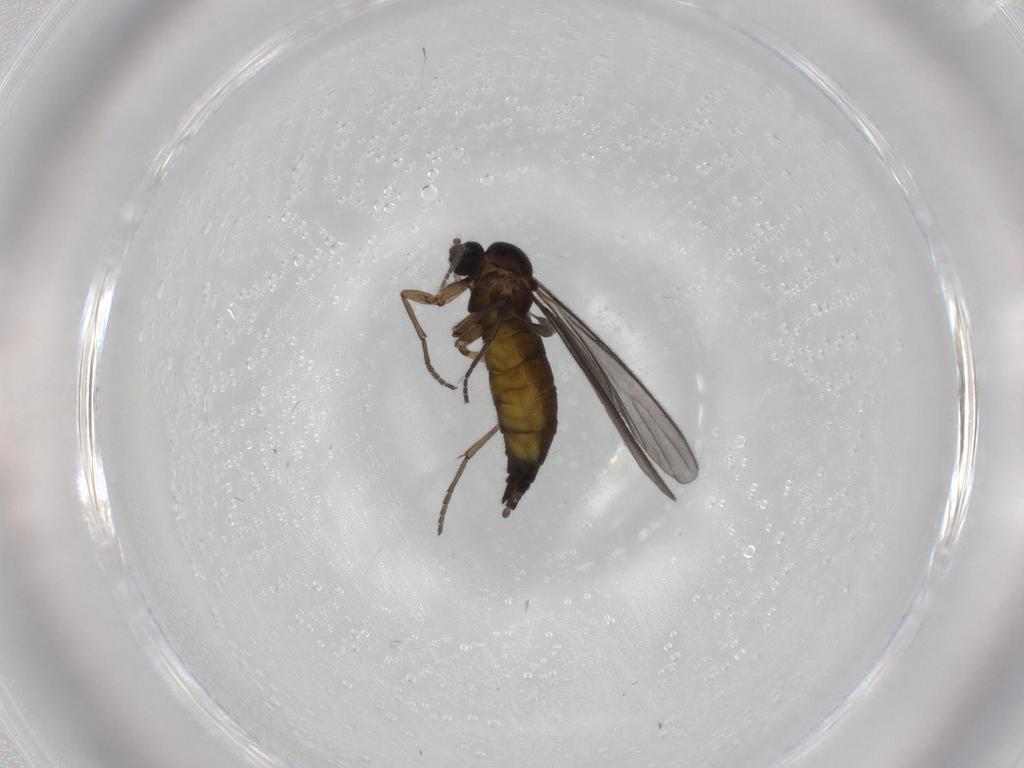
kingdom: Animalia
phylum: Arthropoda
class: Insecta
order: Diptera
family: Sciaridae
